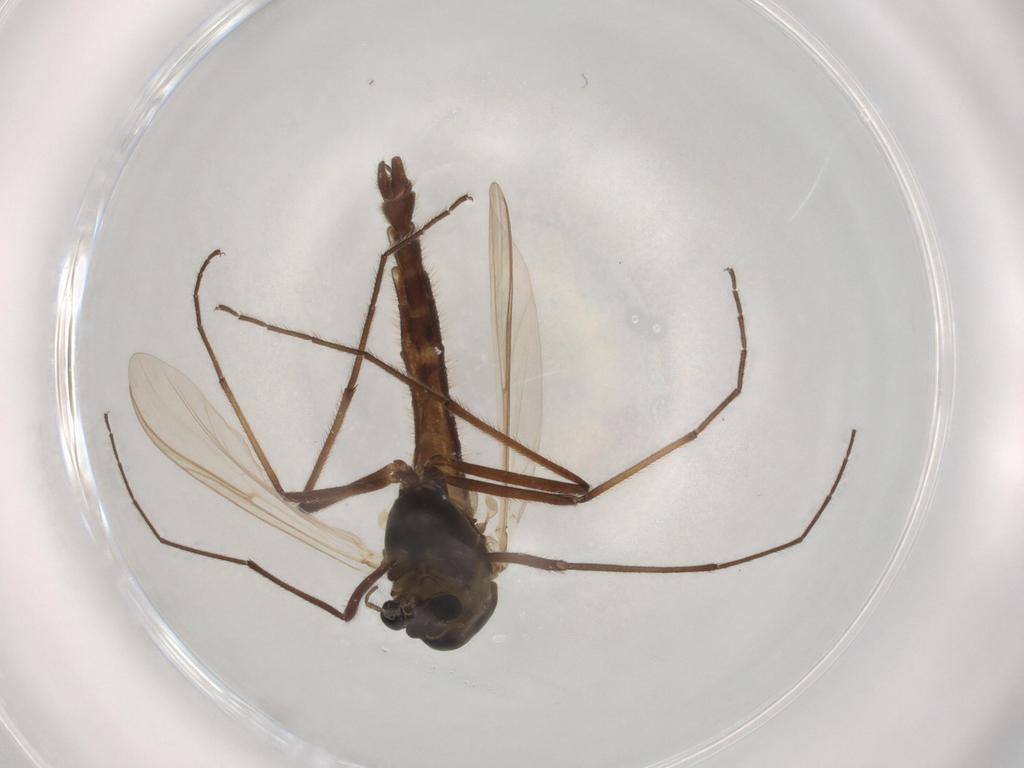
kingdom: Animalia
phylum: Arthropoda
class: Insecta
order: Diptera
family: Drosophilidae
